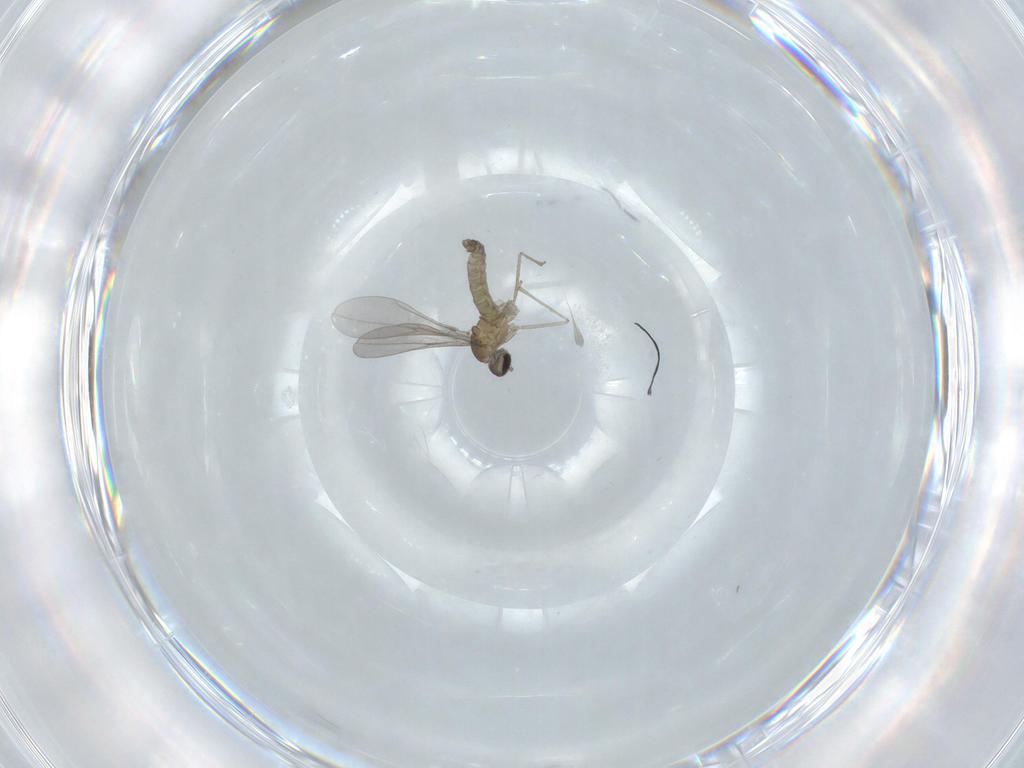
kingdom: Animalia
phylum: Arthropoda
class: Insecta
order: Diptera
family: Cecidomyiidae
